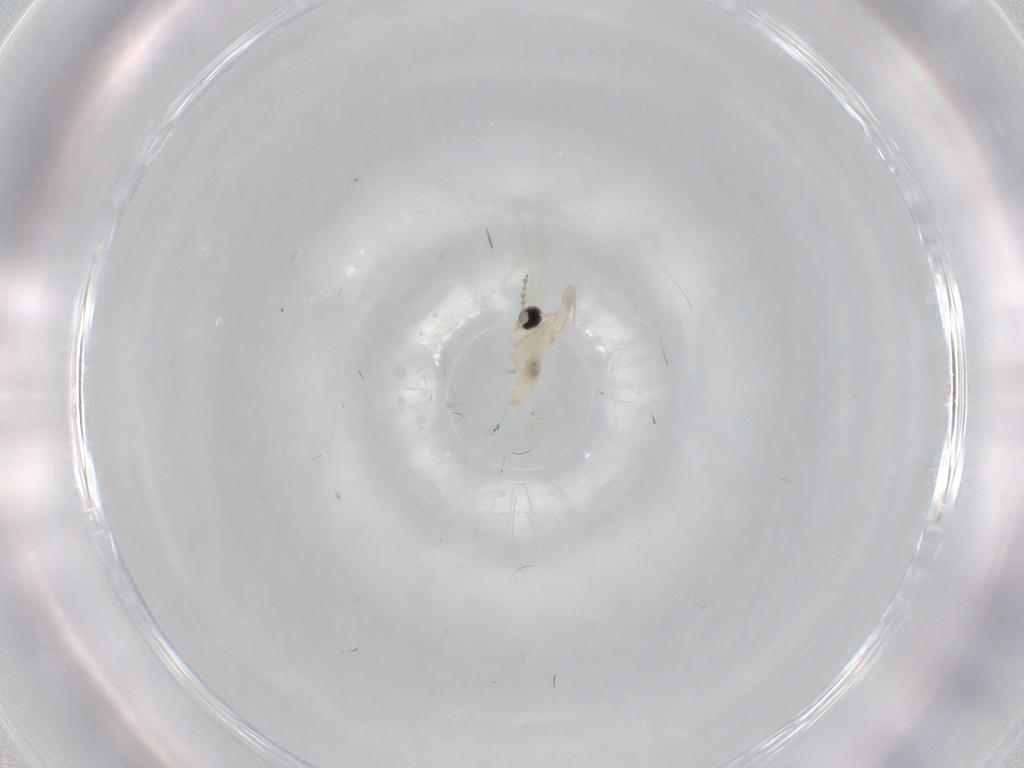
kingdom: Animalia
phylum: Arthropoda
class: Insecta
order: Diptera
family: Cecidomyiidae
